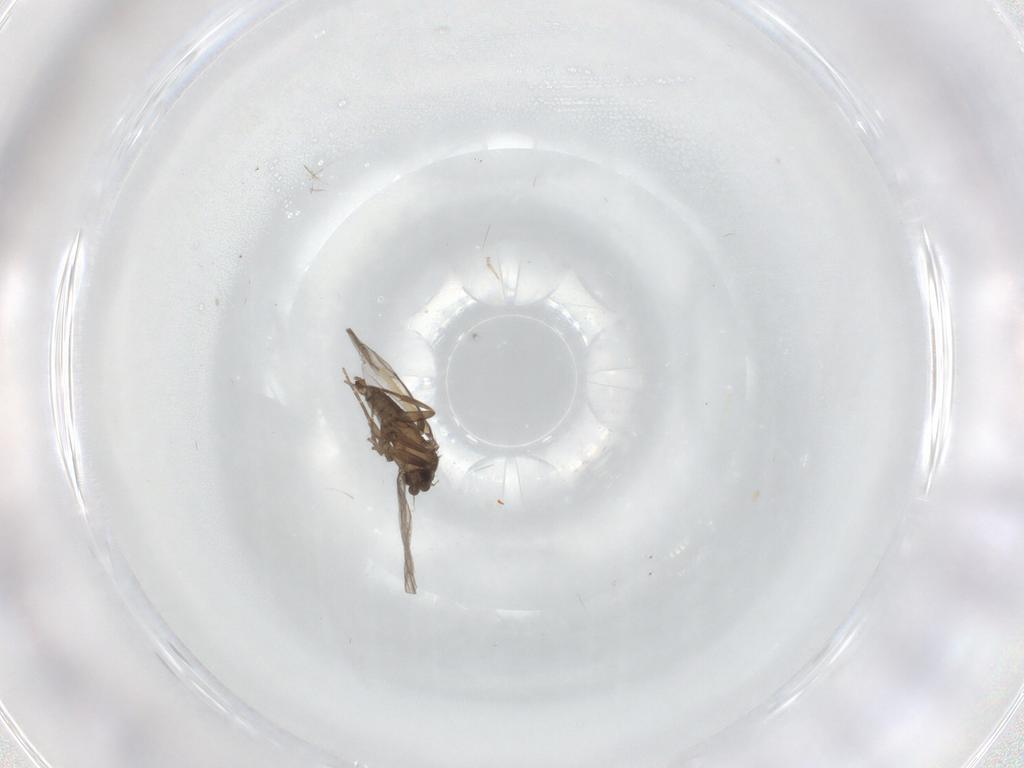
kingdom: Animalia
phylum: Arthropoda
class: Insecta
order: Diptera
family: Phoridae
